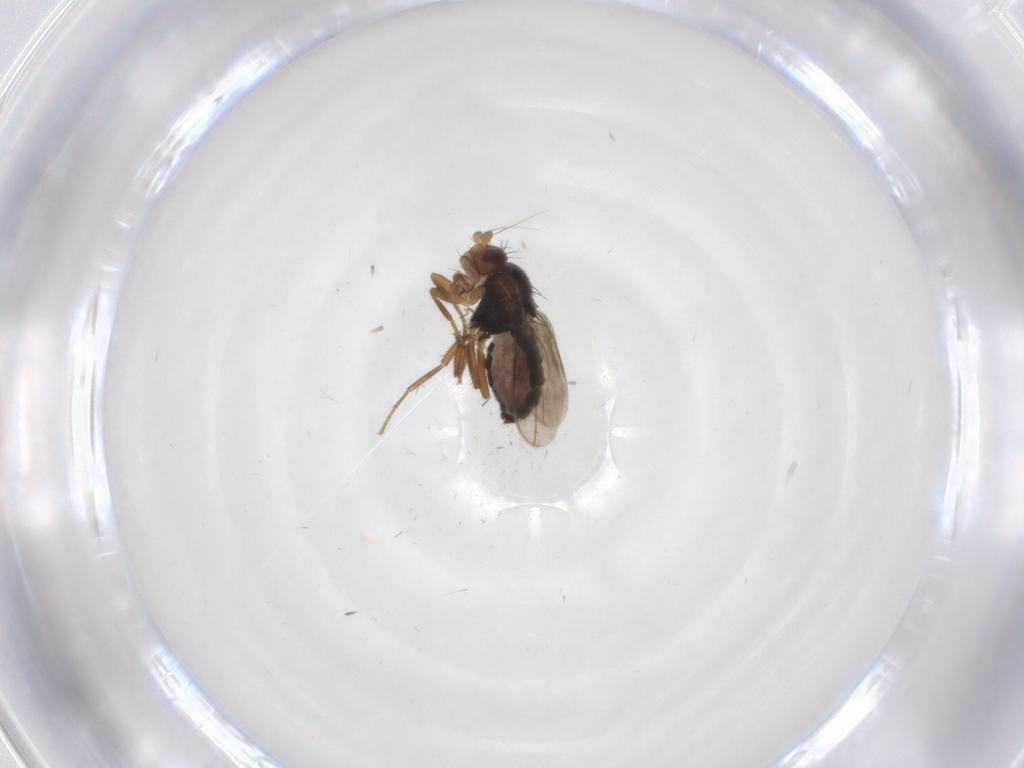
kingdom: Animalia
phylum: Arthropoda
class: Insecta
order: Diptera
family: Sphaeroceridae
